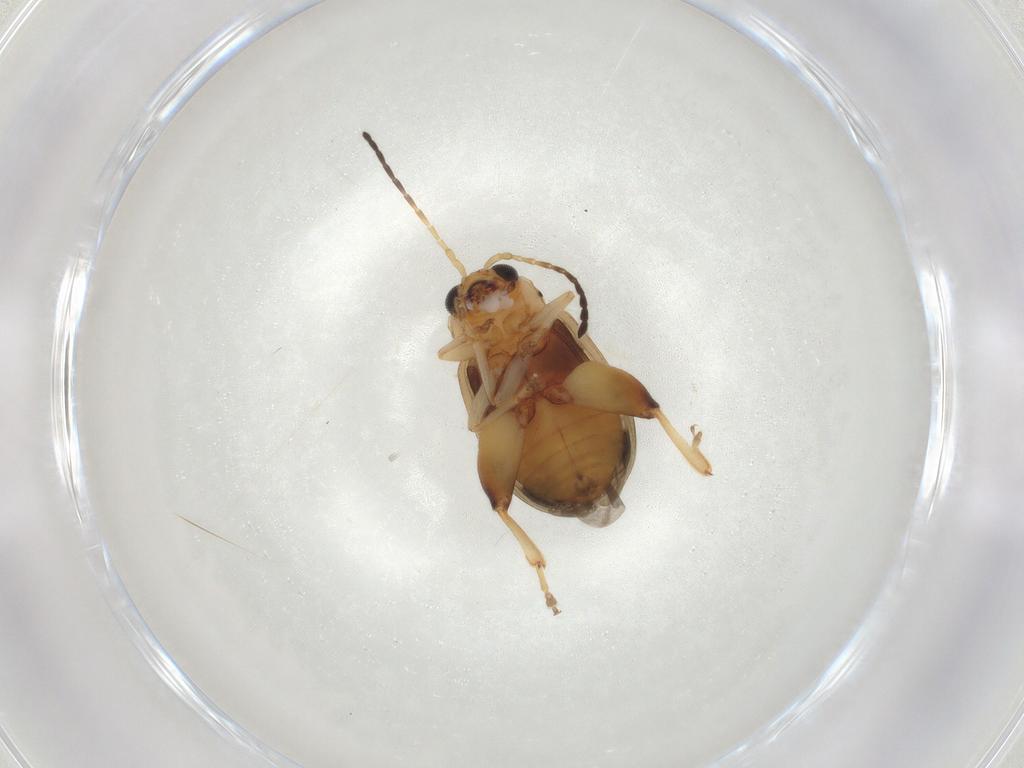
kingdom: Animalia
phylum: Arthropoda
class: Insecta
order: Coleoptera
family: Chrysomelidae
